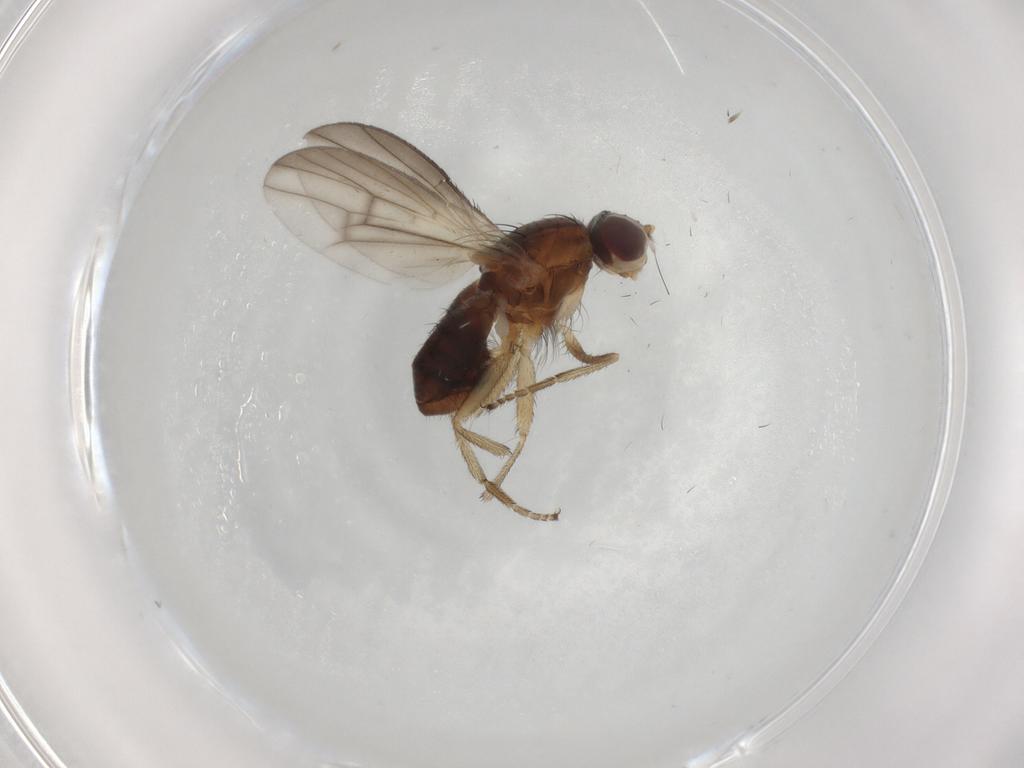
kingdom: Animalia
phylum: Arthropoda
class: Insecta
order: Diptera
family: Heleomyzidae
